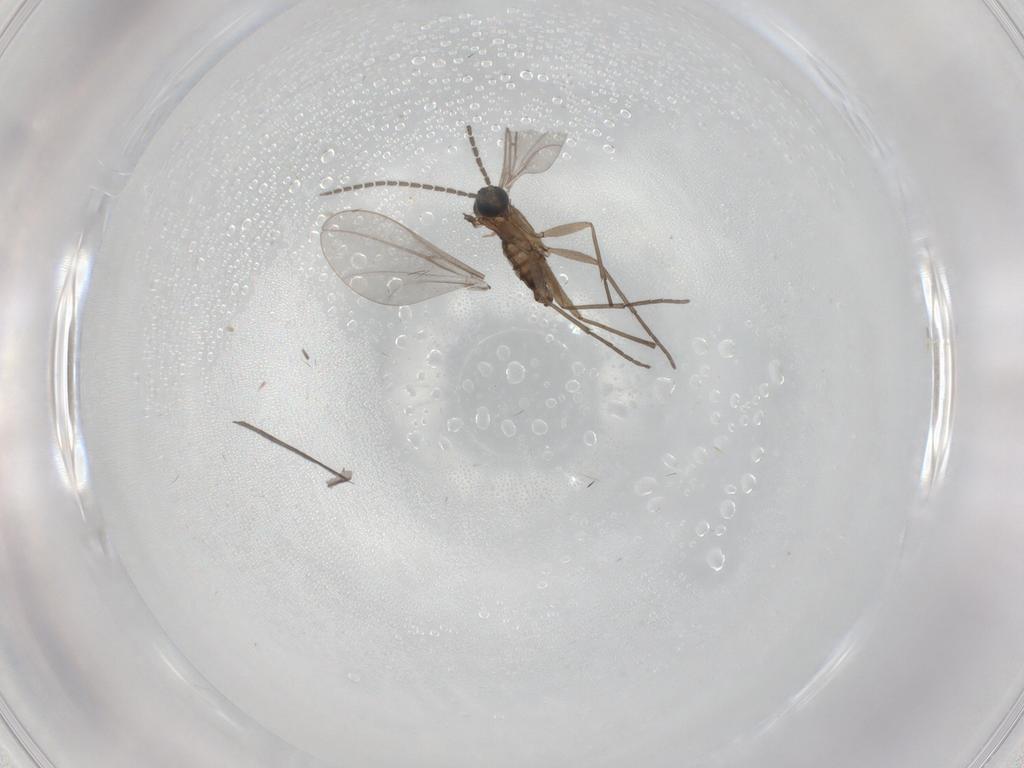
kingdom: Animalia
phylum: Arthropoda
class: Insecta
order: Diptera
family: Sciaridae
